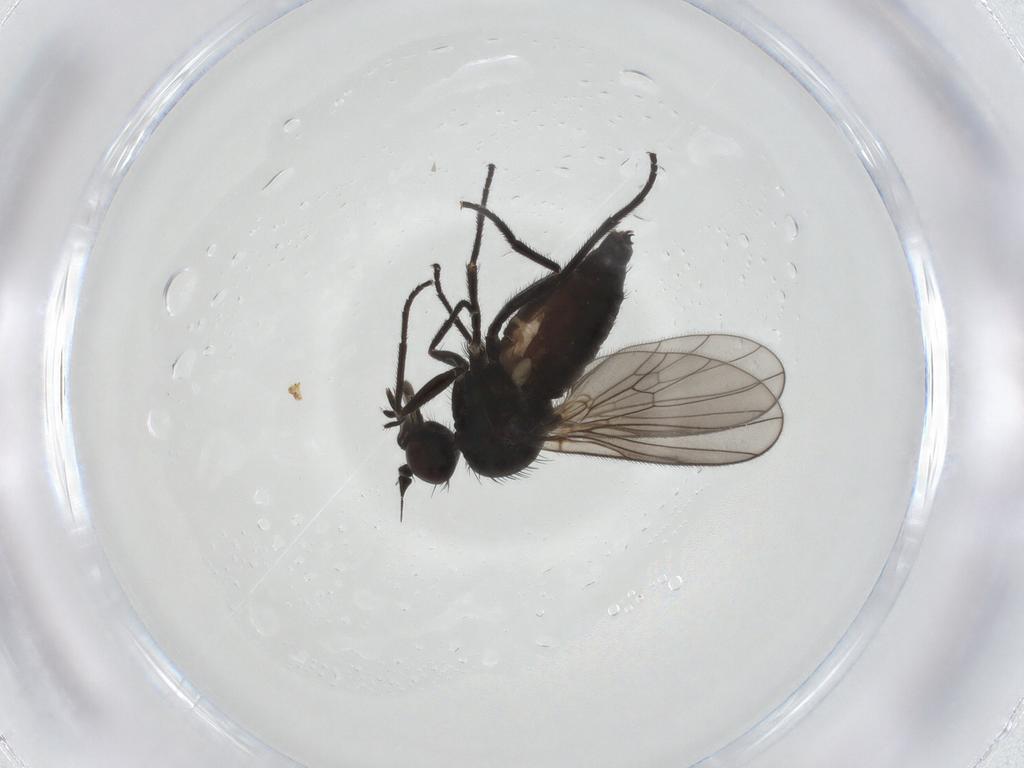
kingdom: Animalia
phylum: Arthropoda
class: Insecta
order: Diptera
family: Dolichopodidae
